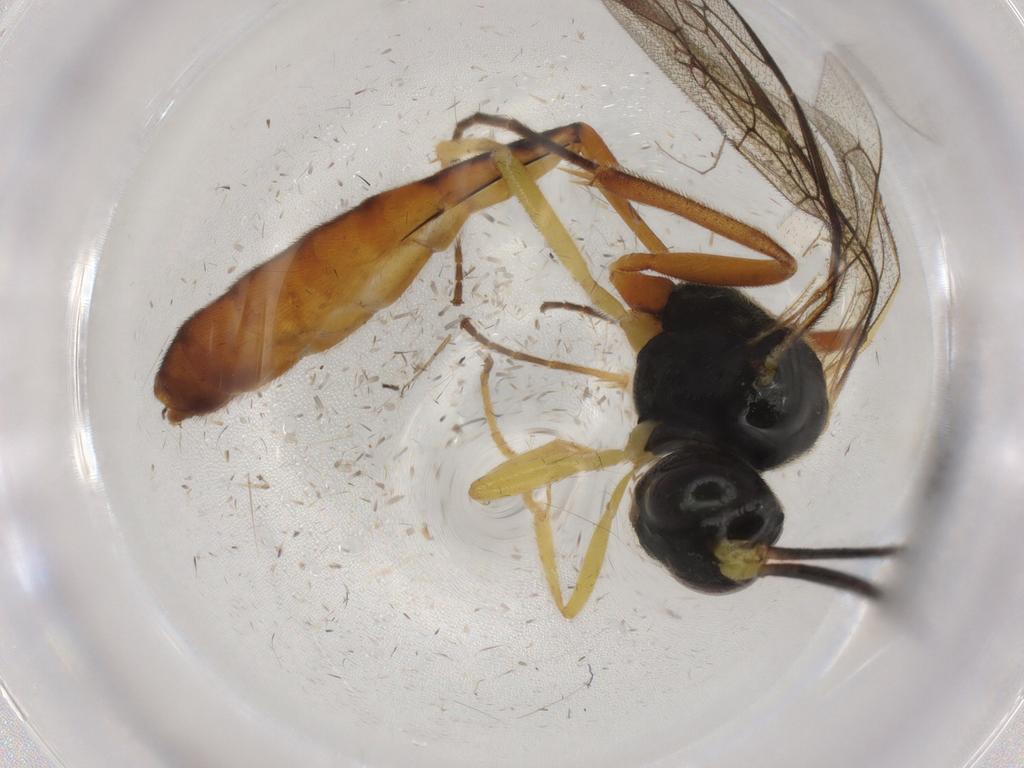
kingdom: Animalia
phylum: Arthropoda
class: Insecta
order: Hymenoptera
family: Ichneumonidae
